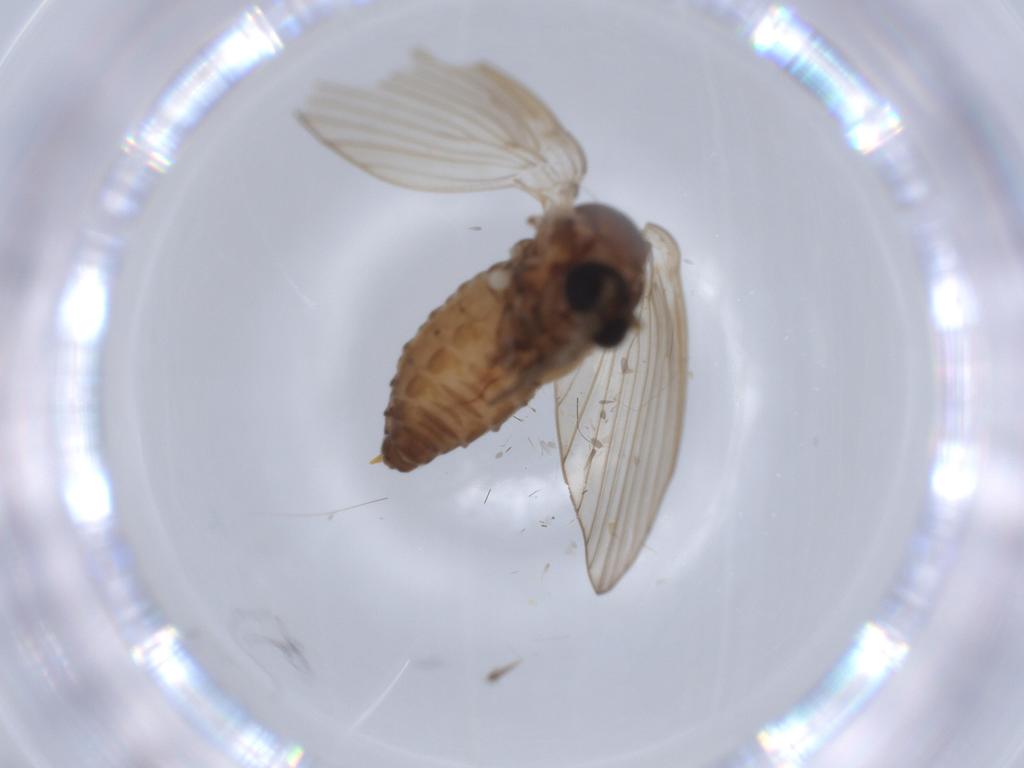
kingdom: Animalia
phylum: Arthropoda
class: Insecta
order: Diptera
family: Psychodidae
